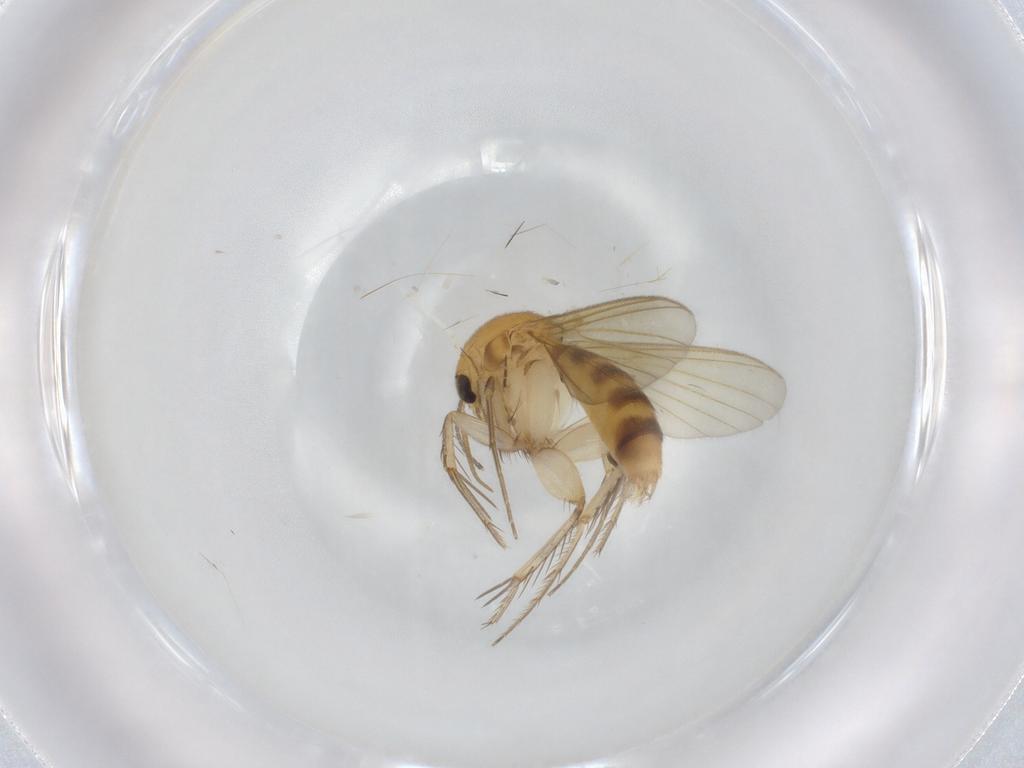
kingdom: Animalia
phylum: Arthropoda
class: Insecta
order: Diptera
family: Mycetophilidae
